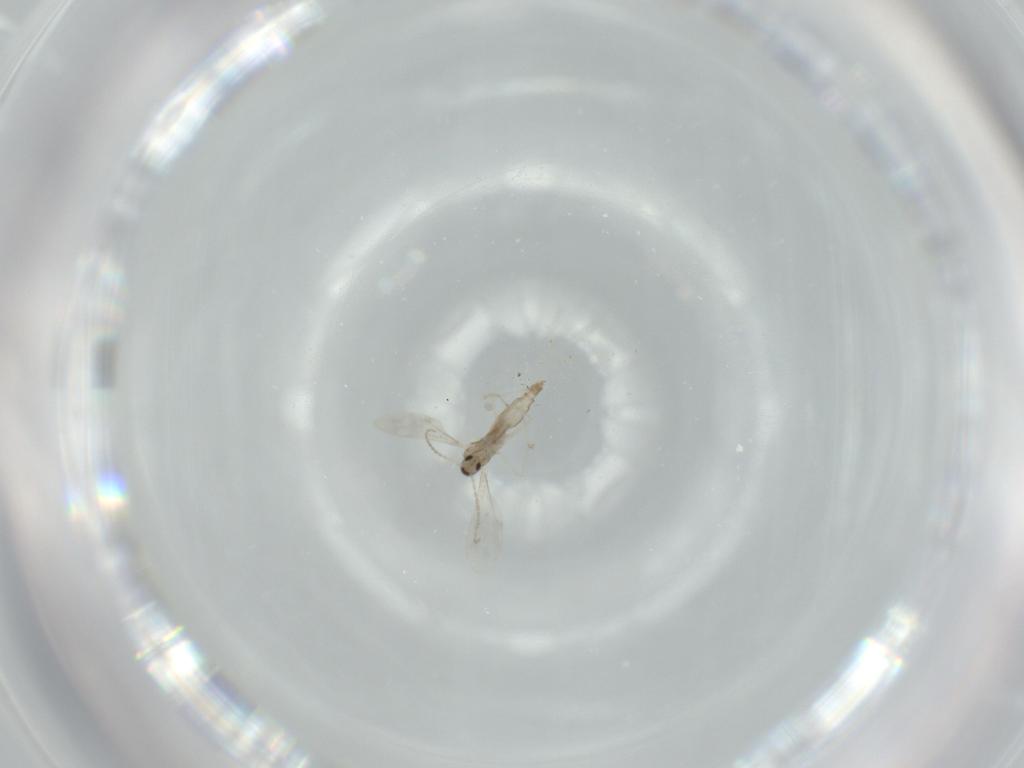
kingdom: Animalia
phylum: Arthropoda
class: Insecta
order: Diptera
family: Cecidomyiidae
